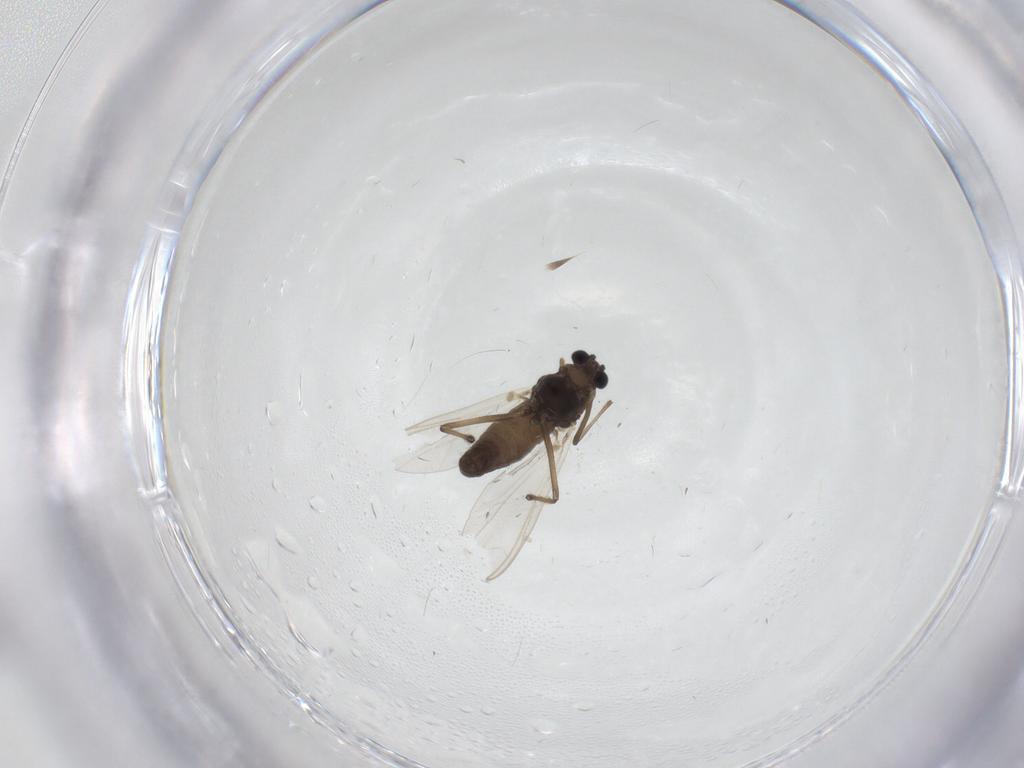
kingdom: Animalia
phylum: Arthropoda
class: Insecta
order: Diptera
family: Chironomidae
